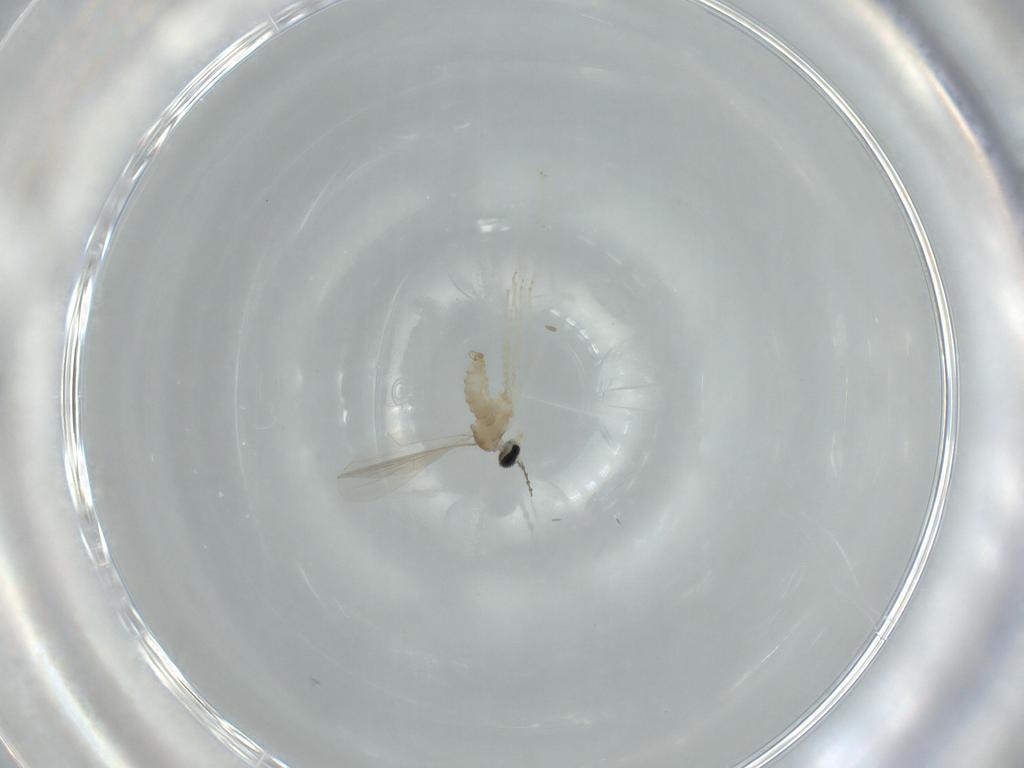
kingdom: Animalia
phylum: Arthropoda
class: Insecta
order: Diptera
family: Cecidomyiidae
